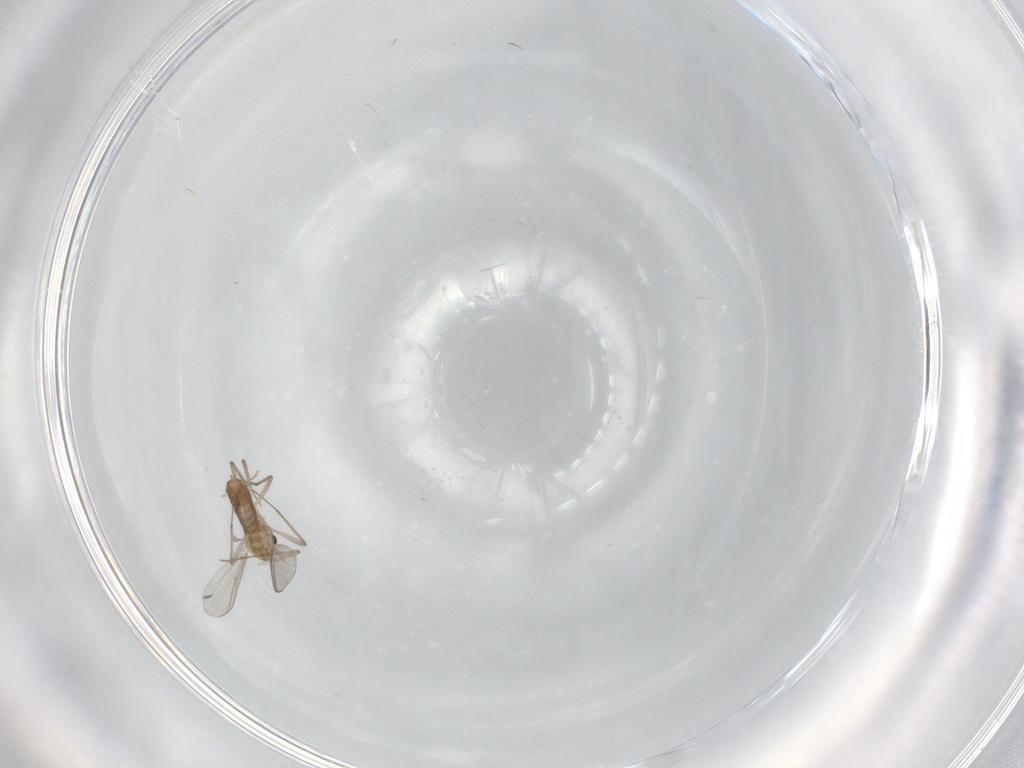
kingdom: Animalia
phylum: Arthropoda
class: Insecta
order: Diptera
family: Chironomidae
